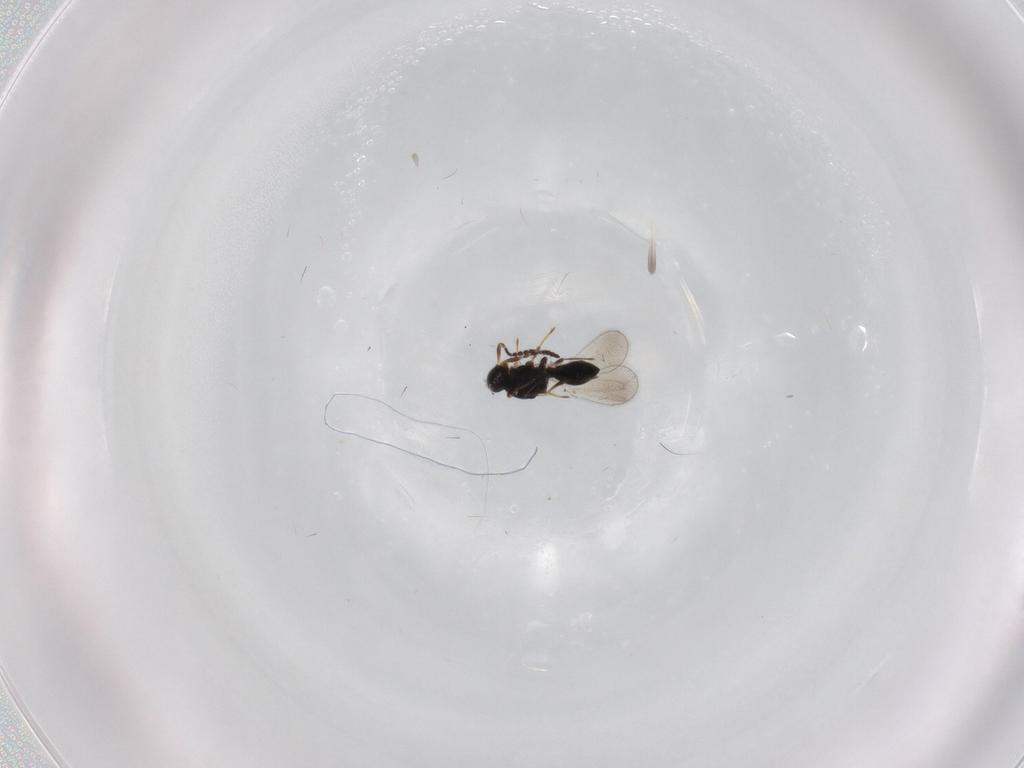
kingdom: Animalia
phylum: Arthropoda
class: Insecta
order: Hymenoptera
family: Platygastridae
